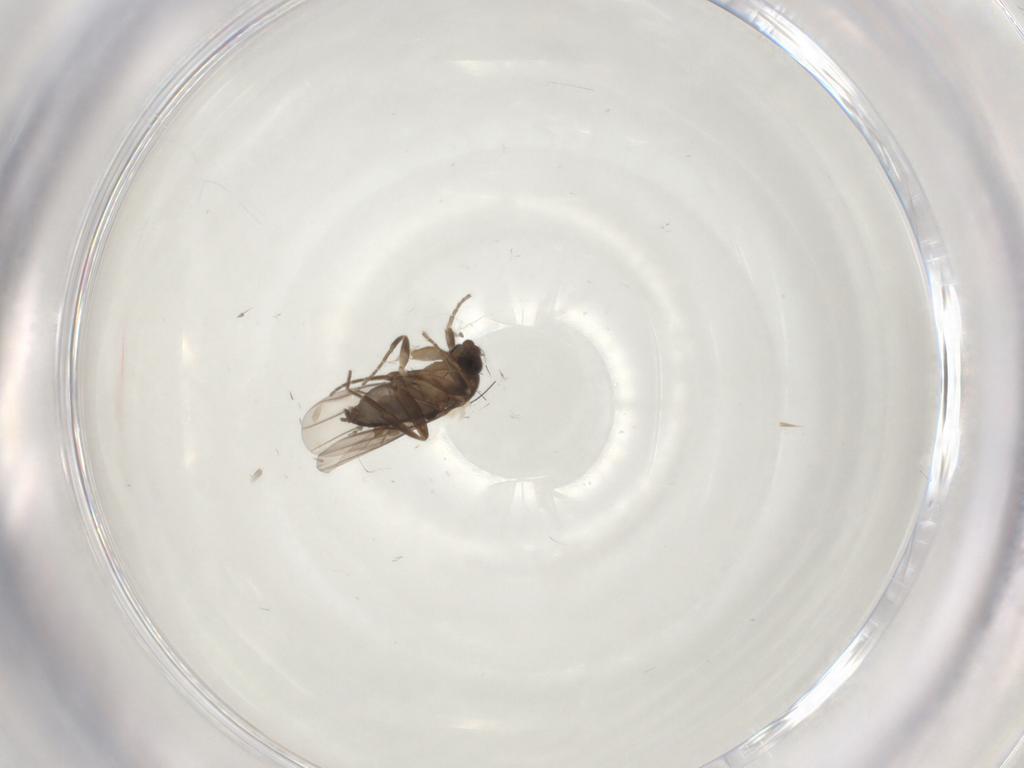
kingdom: Animalia
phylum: Arthropoda
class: Insecta
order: Diptera
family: Cecidomyiidae
